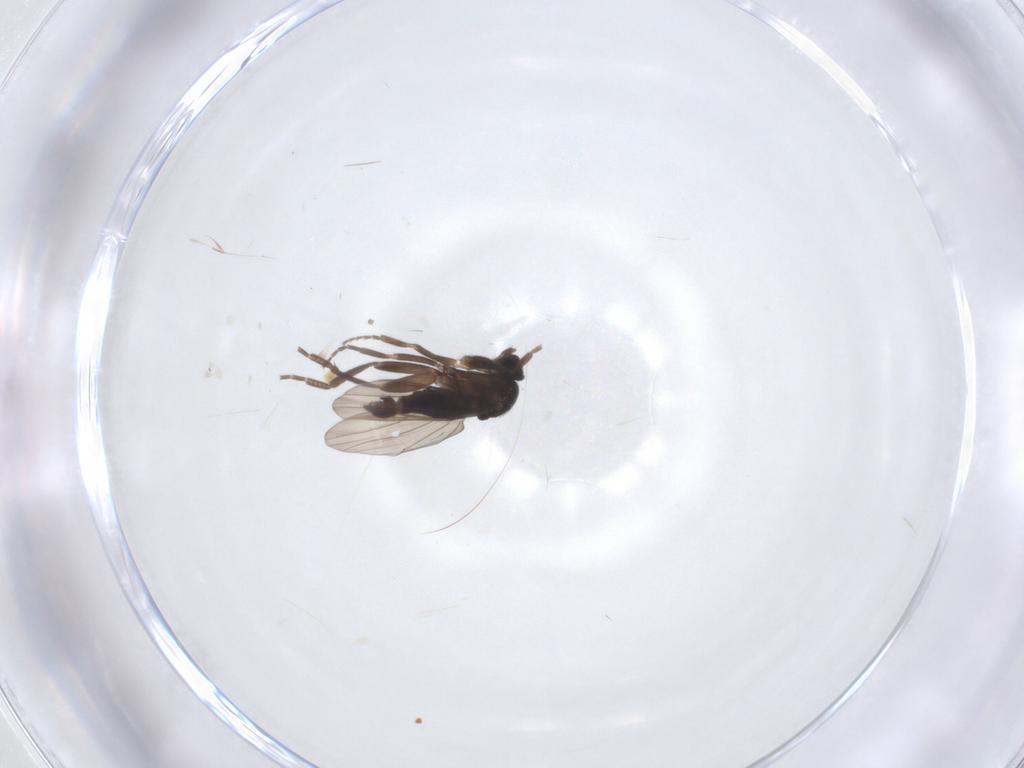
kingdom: Animalia
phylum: Arthropoda
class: Insecta
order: Diptera
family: Phoridae
